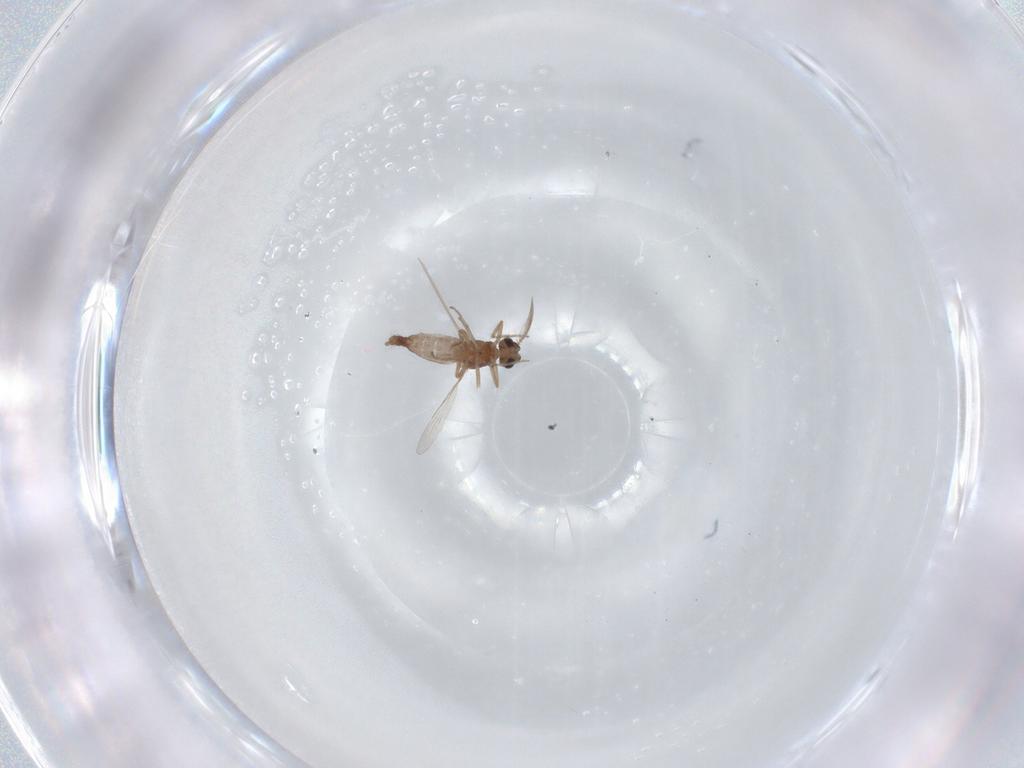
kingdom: Animalia
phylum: Arthropoda
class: Insecta
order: Diptera
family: Ceratopogonidae
